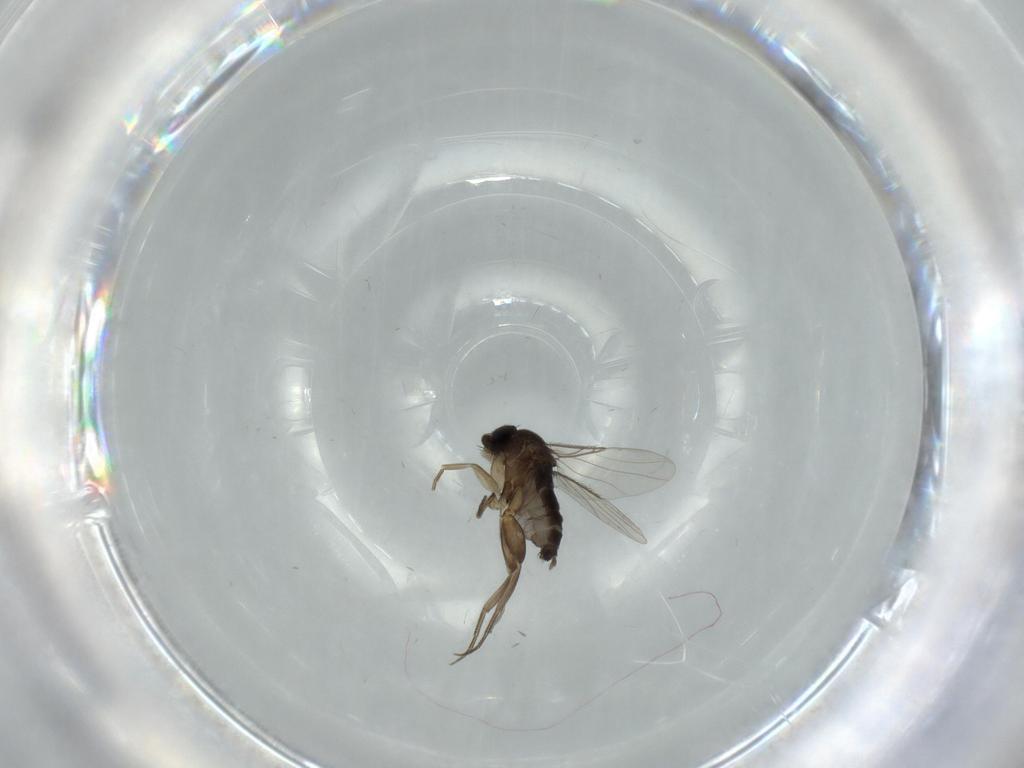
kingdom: Animalia
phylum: Arthropoda
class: Insecta
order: Diptera
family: Phoridae
